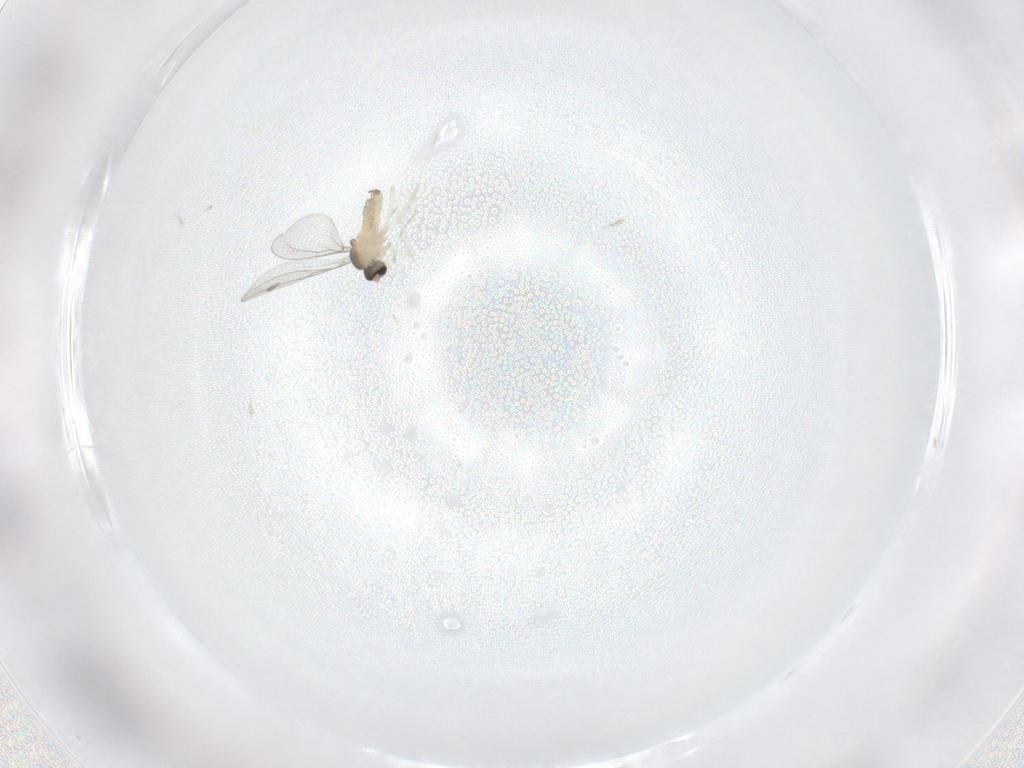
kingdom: Animalia
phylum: Arthropoda
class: Insecta
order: Diptera
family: Cecidomyiidae
